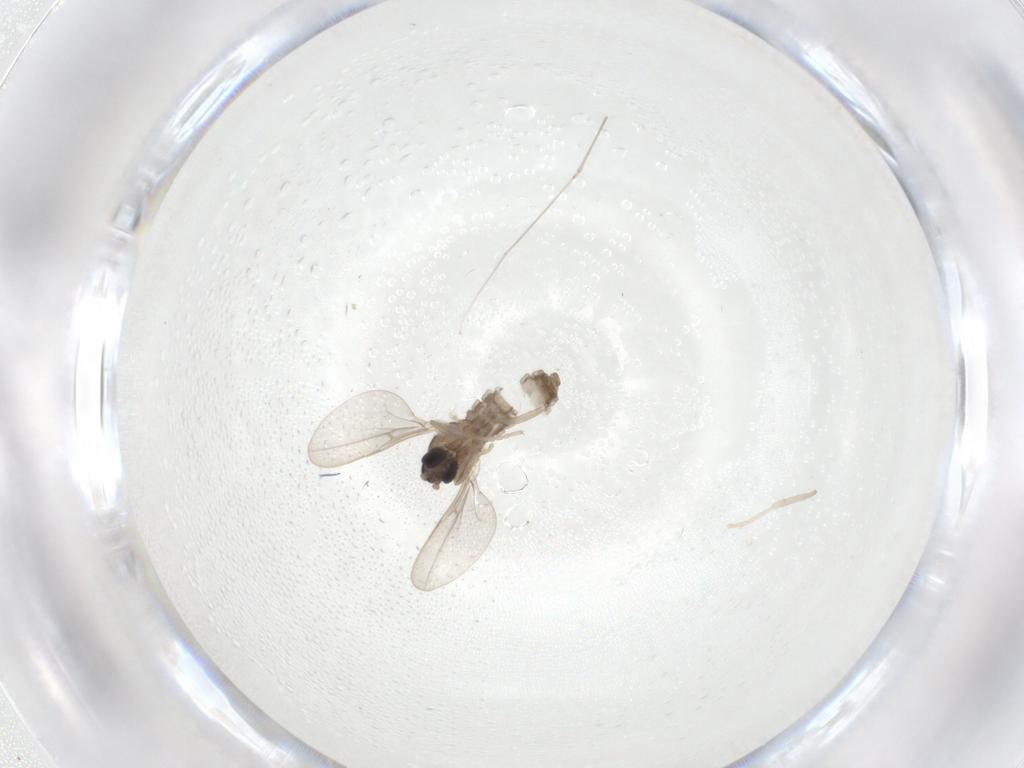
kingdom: Animalia
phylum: Arthropoda
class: Insecta
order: Diptera
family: Cecidomyiidae
